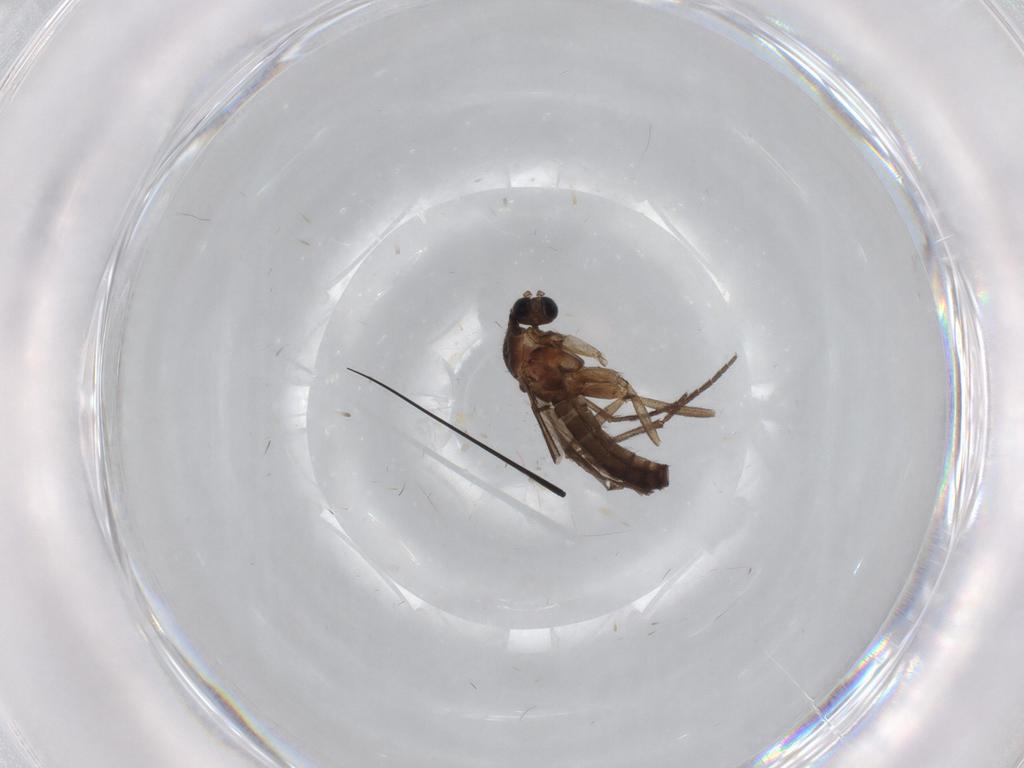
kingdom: Animalia
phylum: Arthropoda
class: Insecta
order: Diptera
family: Sciaridae
